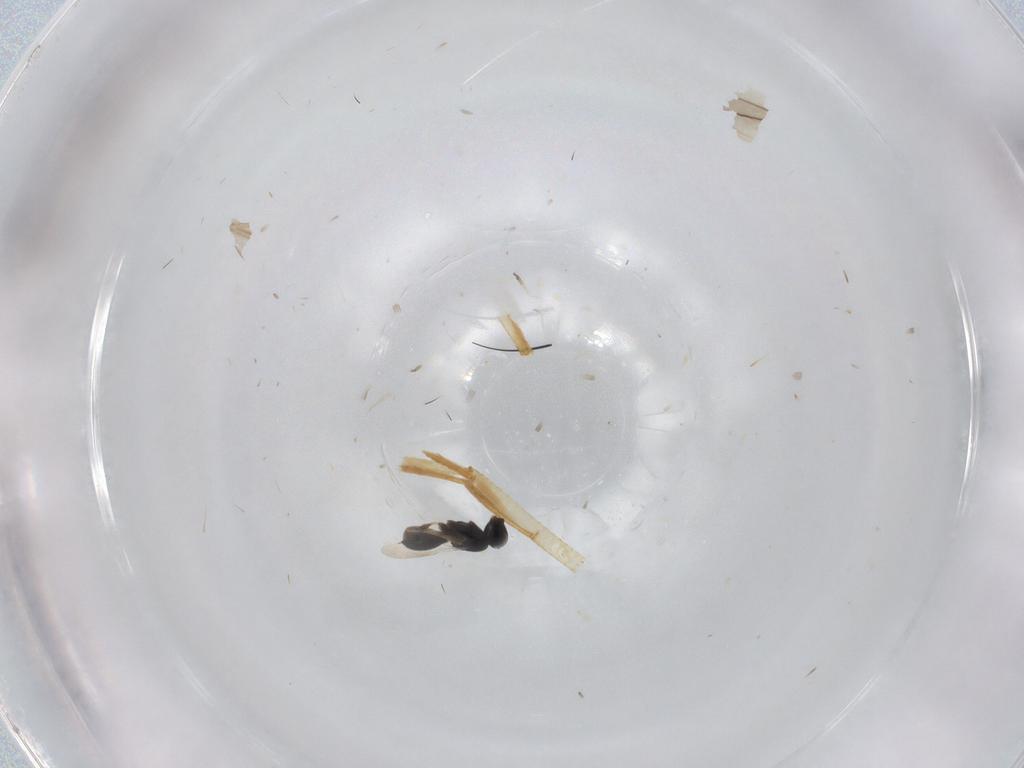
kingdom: Animalia
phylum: Arthropoda
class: Insecta
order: Hymenoptera
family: Scelionidae
